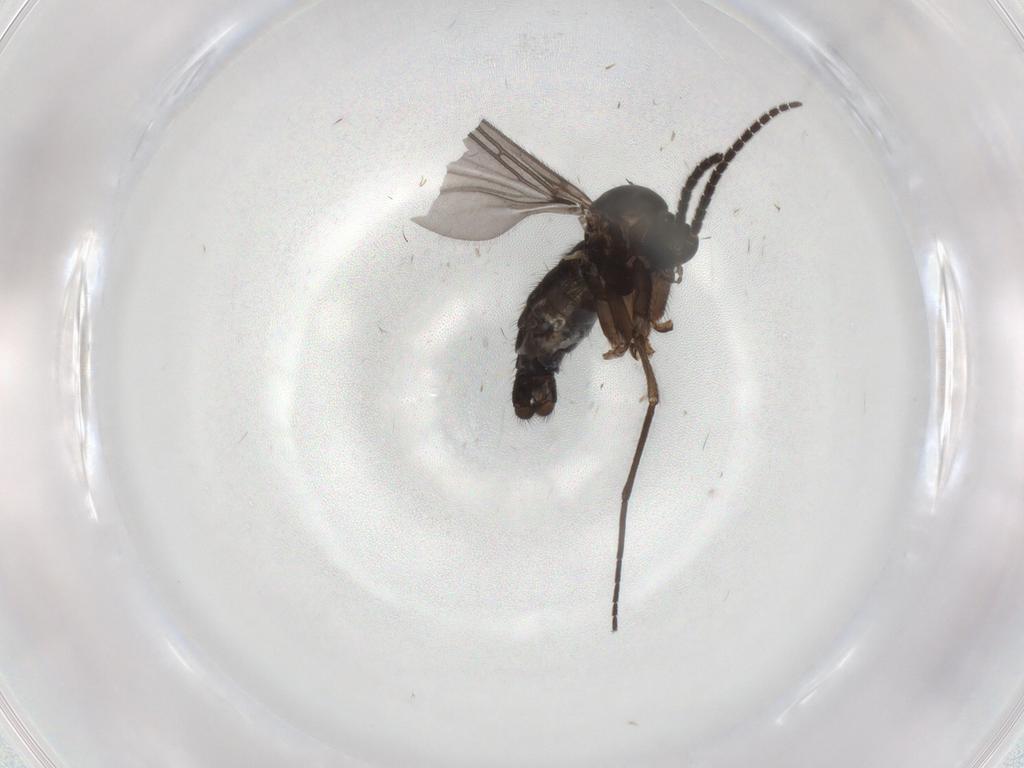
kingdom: Animalia
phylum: Arthropoda
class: Insecta
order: Diptera
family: Sciaridae
